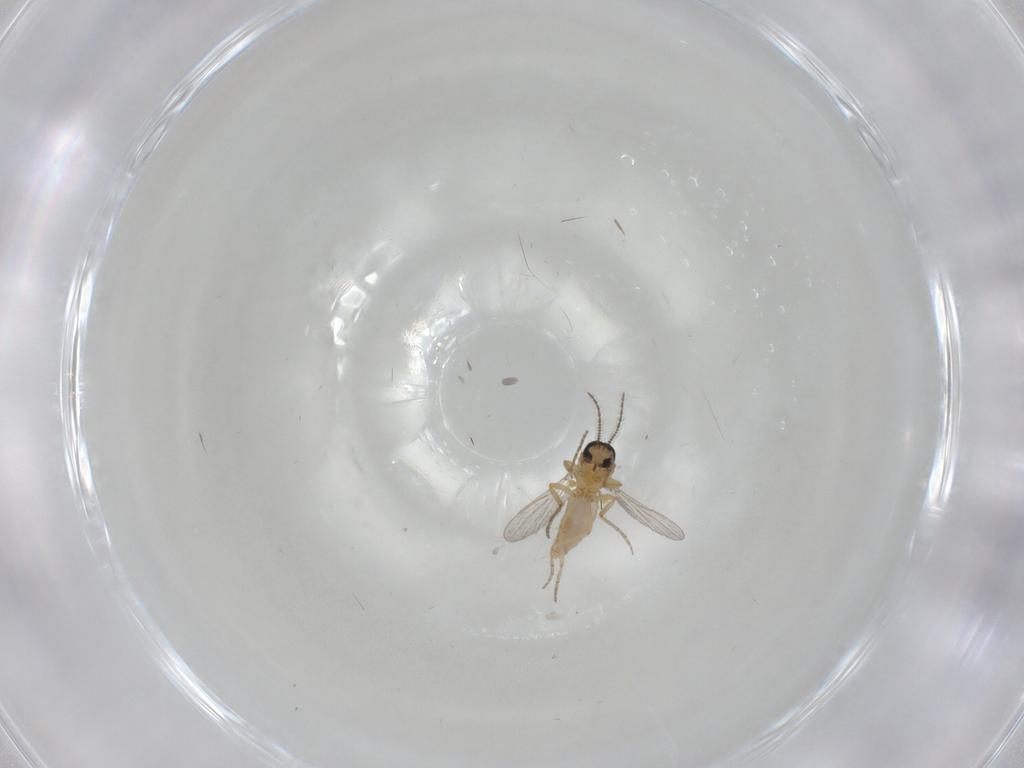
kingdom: Animalia
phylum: Arthropoda
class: Insecta
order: Diptera
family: Ceratopogonidae
